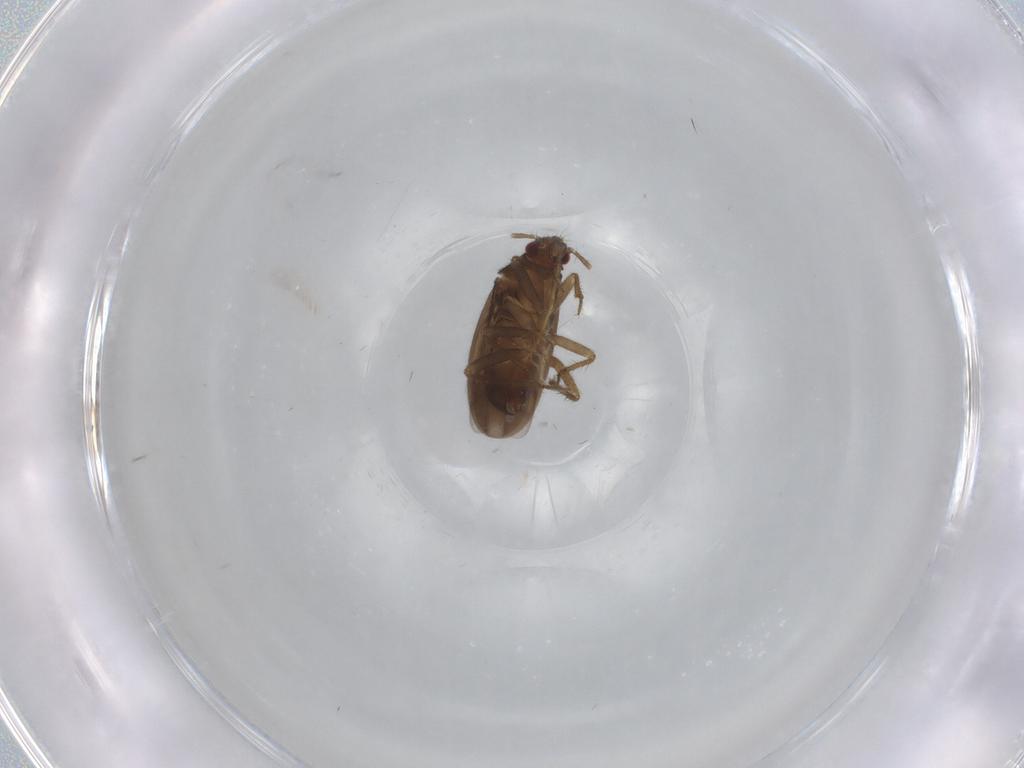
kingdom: Animalia
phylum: Arthropoda
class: Insecta
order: Hemiptera
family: Ceratocombidae
